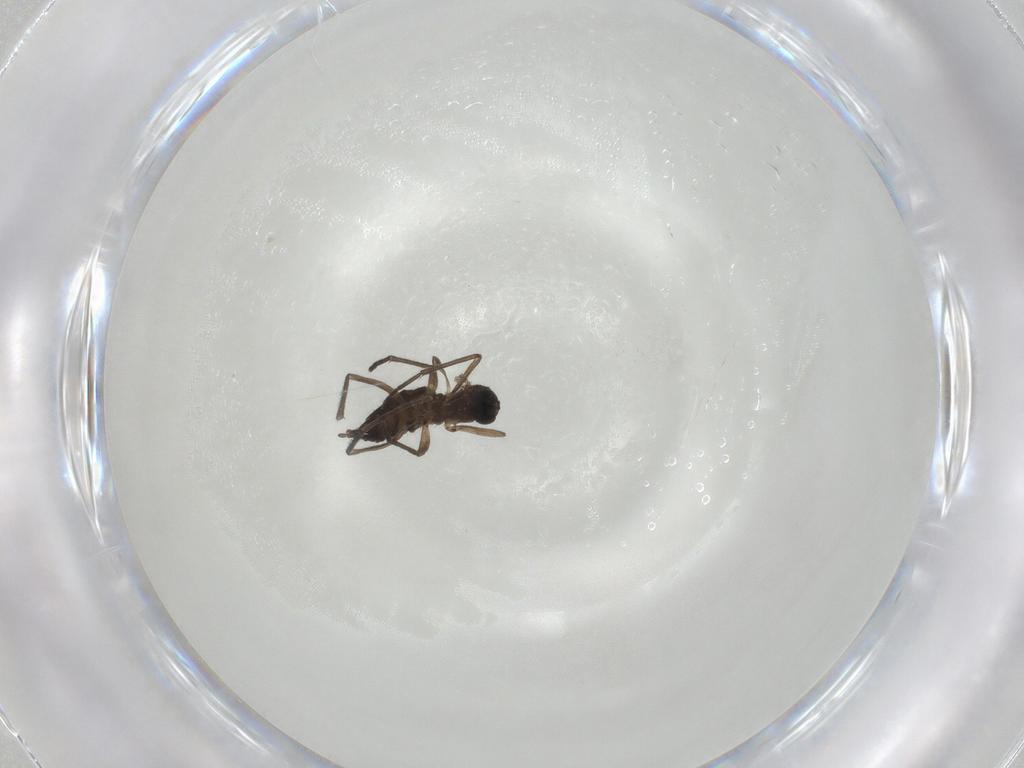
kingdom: Animalia
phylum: Arthropoda
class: Insecta
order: Diptera
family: Sciaridae
